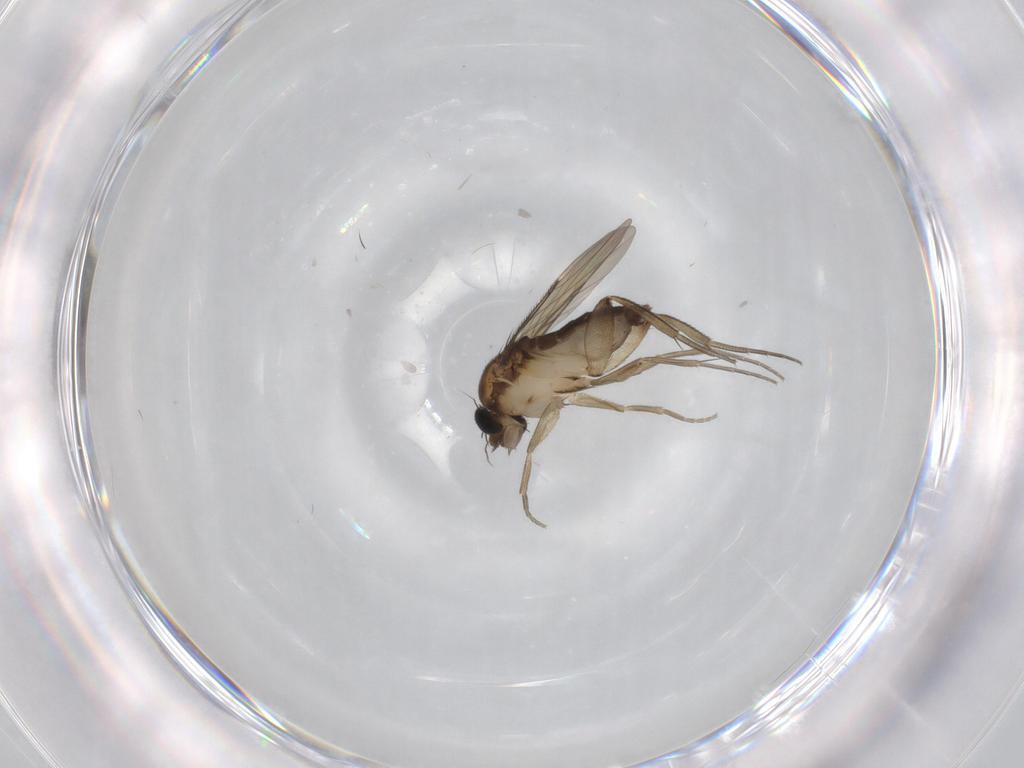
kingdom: Animalia
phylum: Arthropoda
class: Insecta
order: Diptera
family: Phoridae
